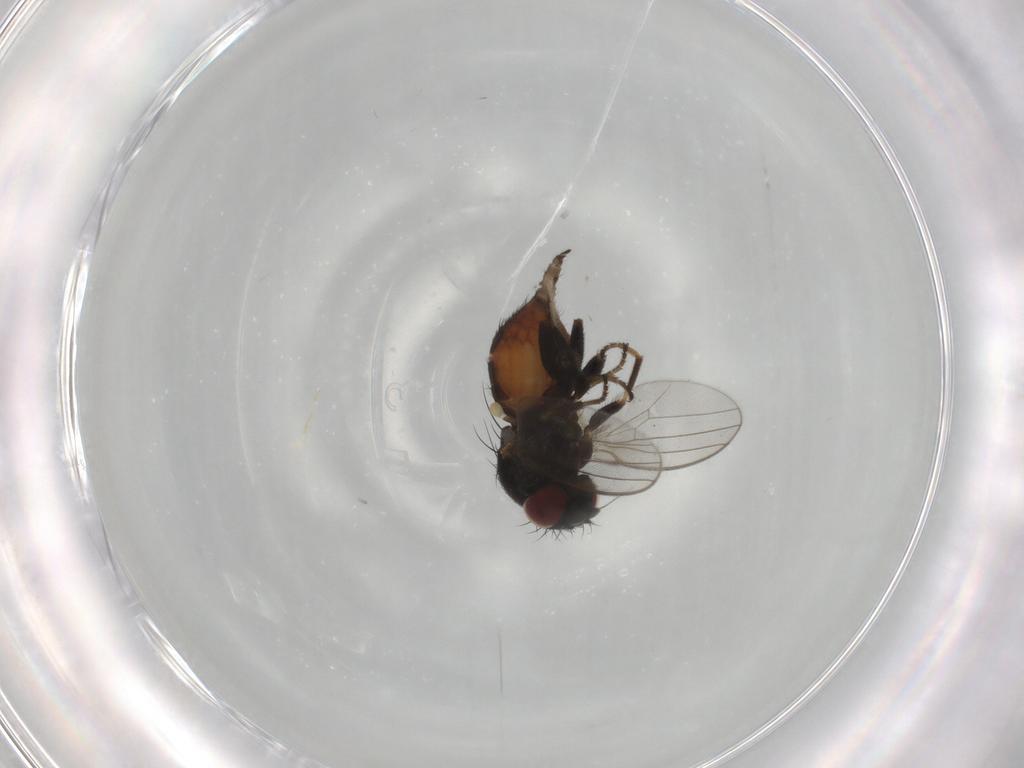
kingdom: Animalia
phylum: Arthropoda
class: Insecta
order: Diptera
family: Milichiidae
